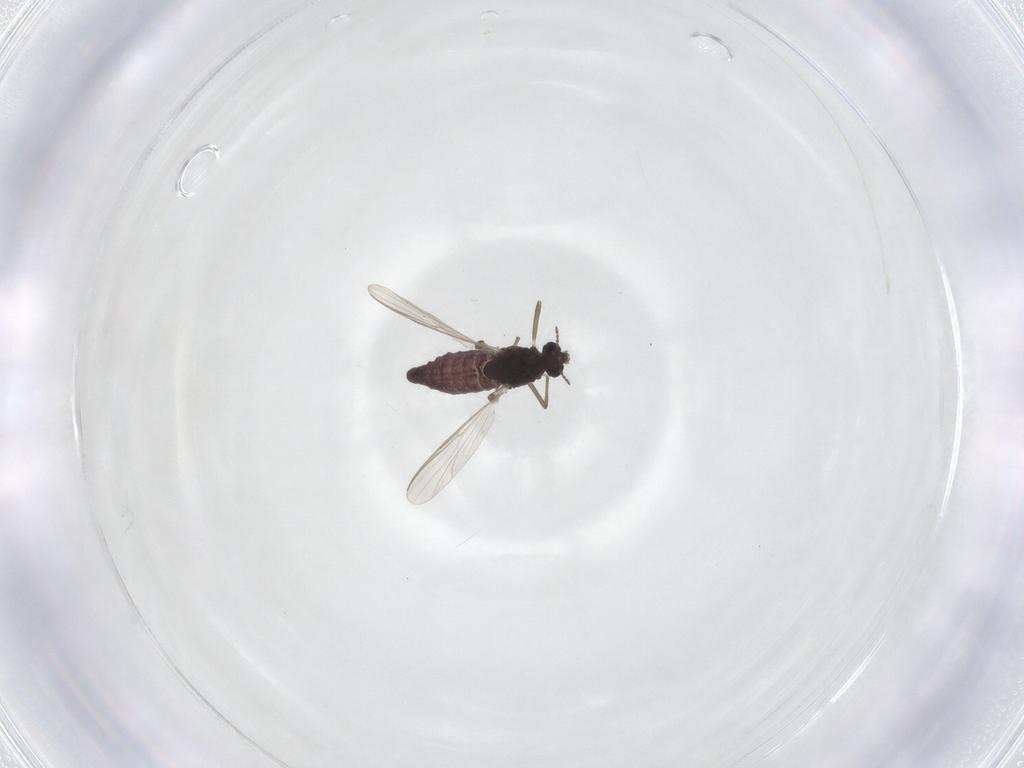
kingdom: Animalia
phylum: Arthropoda
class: Insecta
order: Diptera
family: Chironomidae
